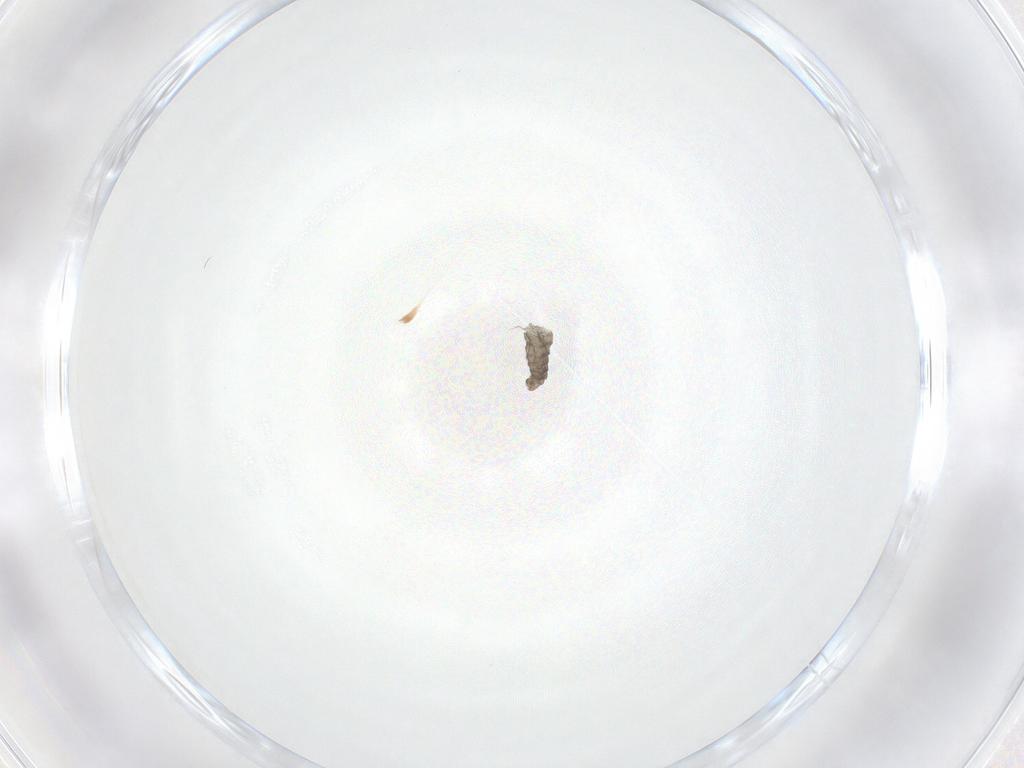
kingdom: Animalia
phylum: Arthropoda
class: Insecta
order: Diptera
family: Cecidomyiidae
